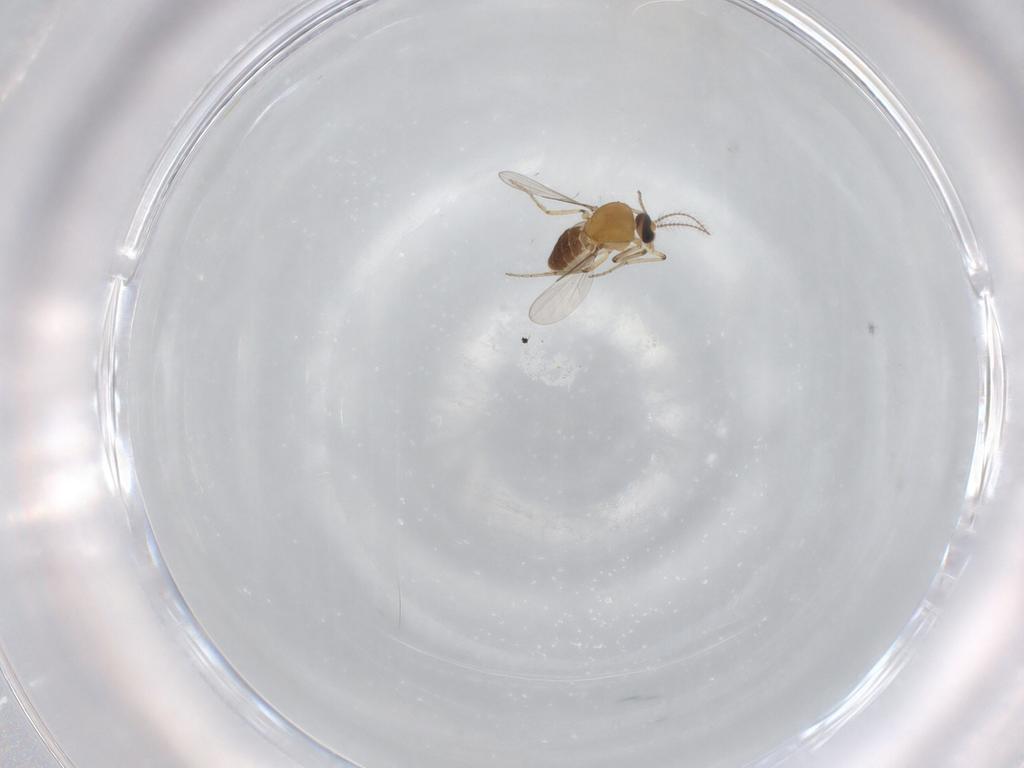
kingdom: Animalia
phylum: Arthropoda
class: Insecta
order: Diptera
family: Ceratopogonidae
